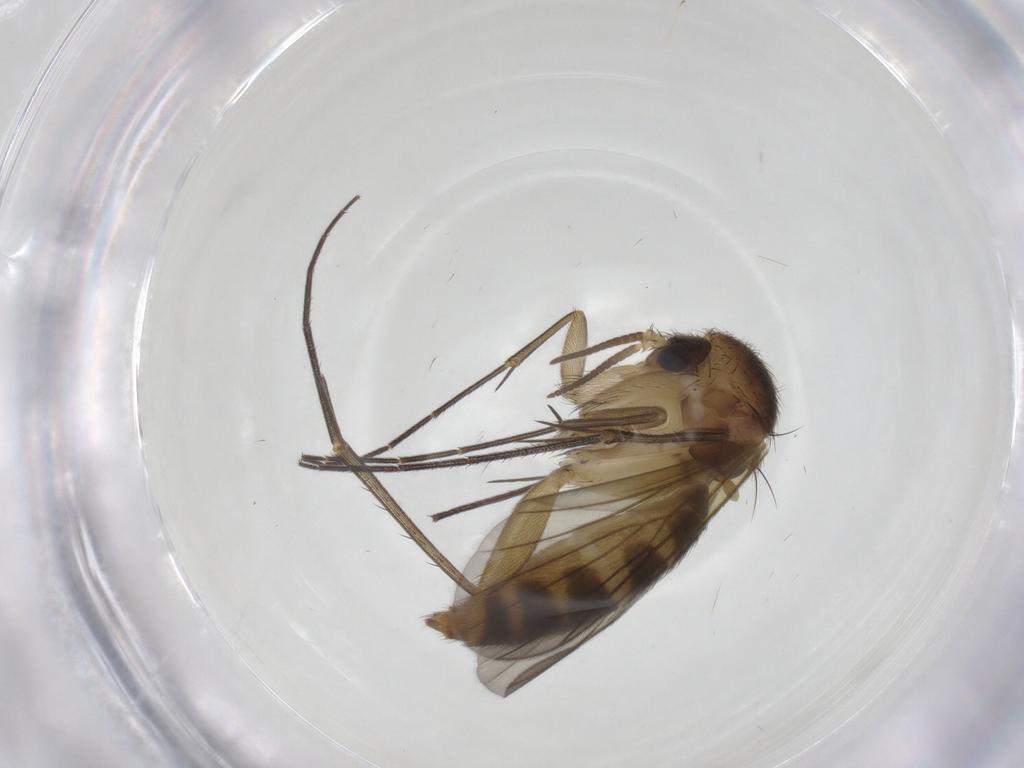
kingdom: Animalia
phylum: Arthropoda
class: Insecta
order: Diptera
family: Mycetophilidae
